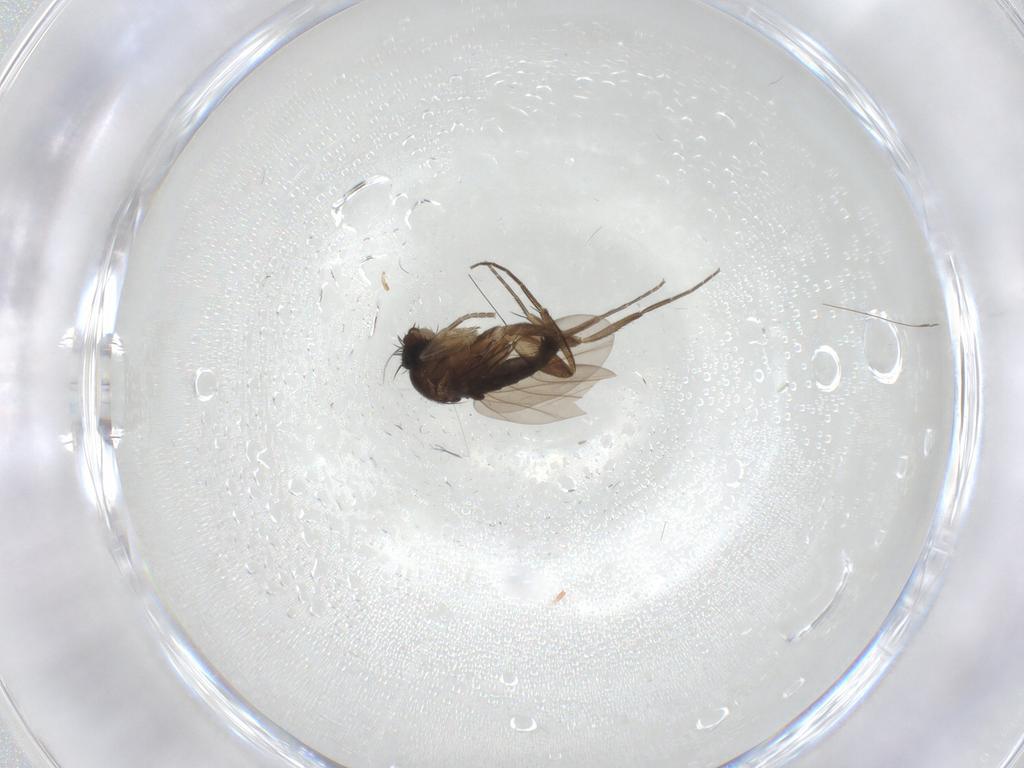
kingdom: Animalia
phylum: Arthropoda
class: Insecta
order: Diptera
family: Phoridae
